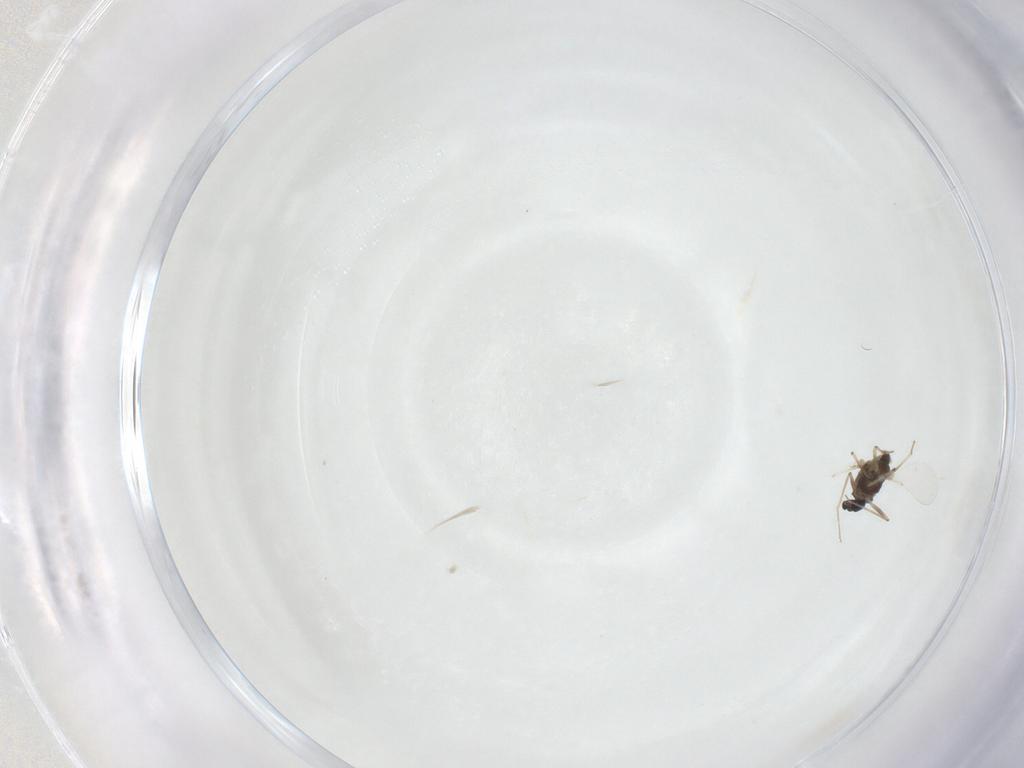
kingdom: Animalia
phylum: Arthropoda
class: Insecta
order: Diptera
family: Chironomidae
